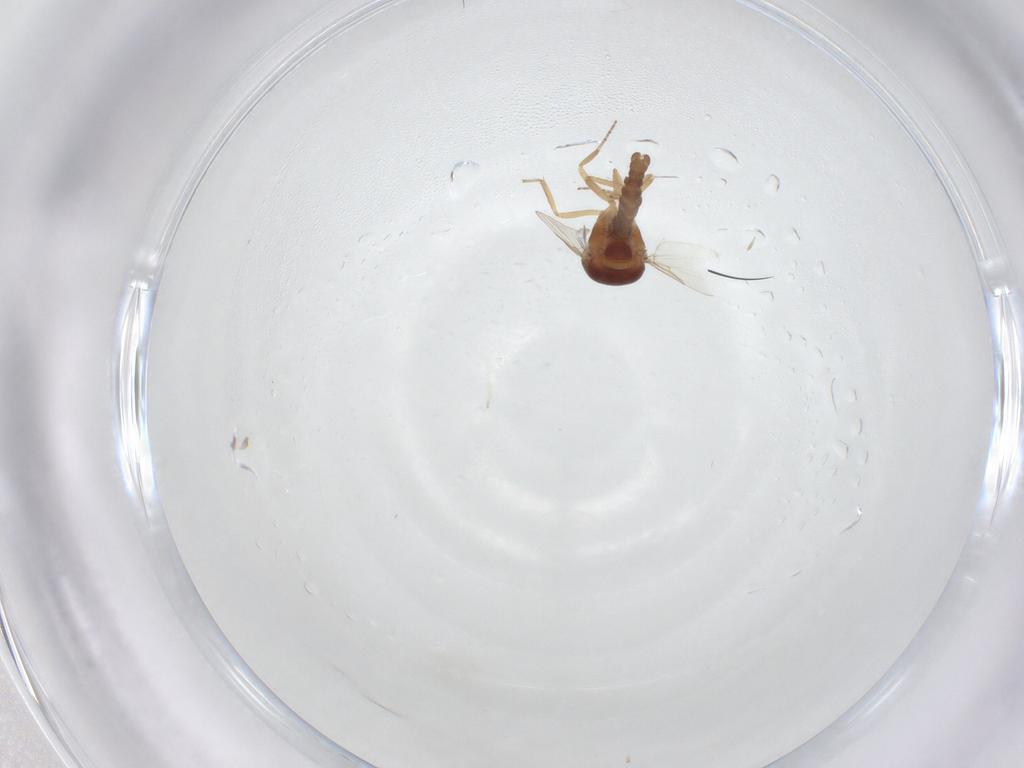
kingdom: Animalia
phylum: Arthropoda
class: Insecta
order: Diptera
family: Ceratopogonidae
